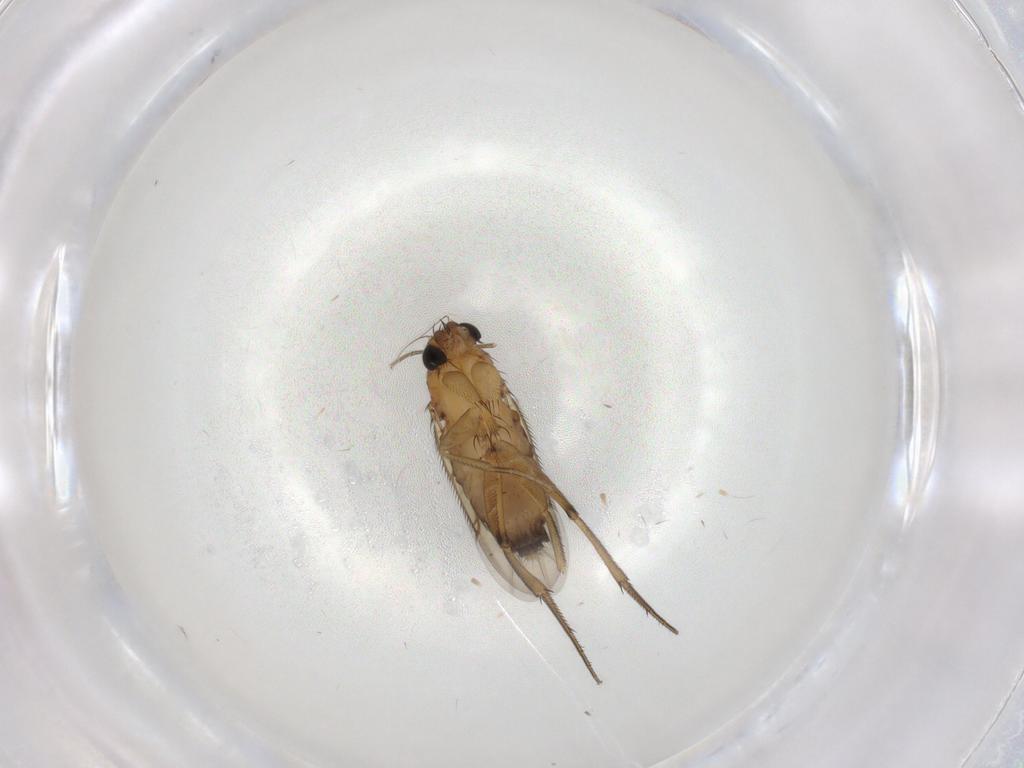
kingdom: Animalia
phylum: Arthropoda
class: Insecta
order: Diptera
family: Phoridae
